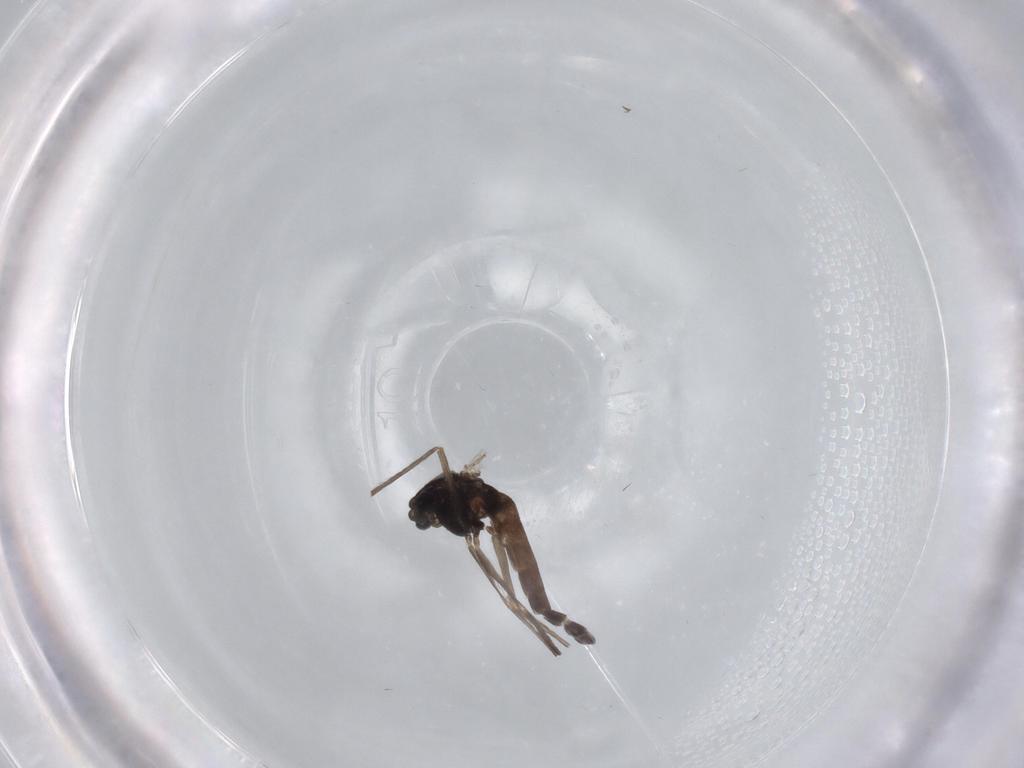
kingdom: Animalia
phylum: Arthropoda
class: Insecta
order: Diptera
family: Chironomidae
